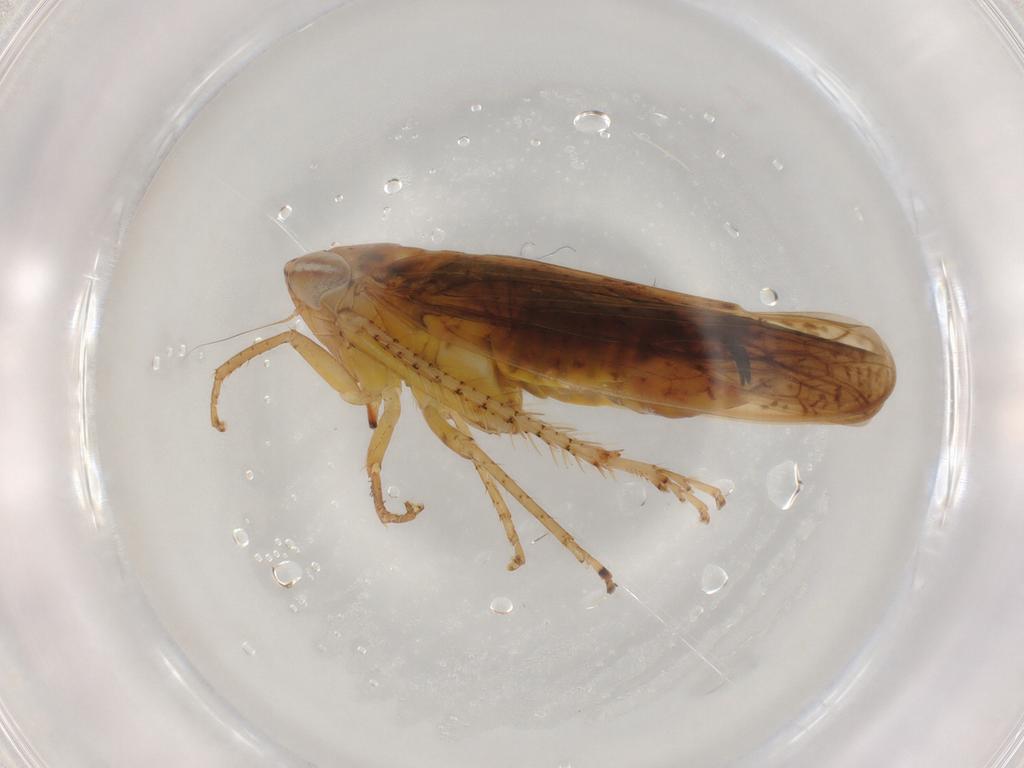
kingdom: Animalia
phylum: Arthropoda
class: Insecta
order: Hemiptera
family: Cicadellidae
